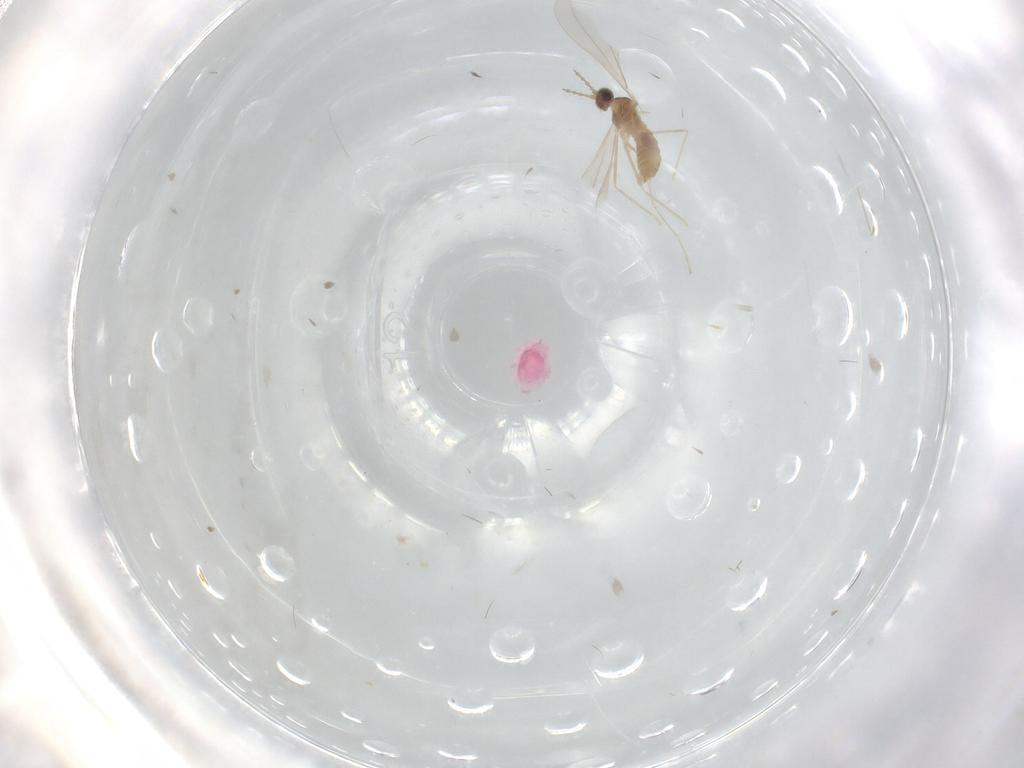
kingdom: Animalia
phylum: Arthropoda
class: Insecta
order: Diptera
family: Cecidomyiidae
